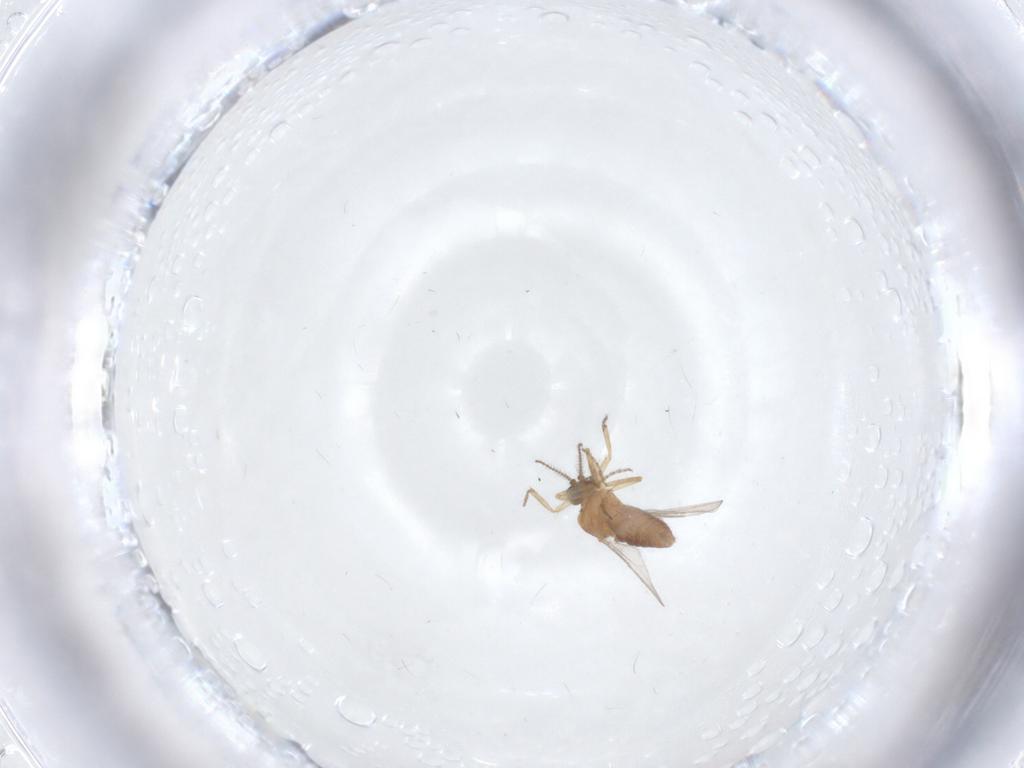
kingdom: Animalia
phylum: Arthropoda
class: Insecta
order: Diptera
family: Ceratopogonidae
